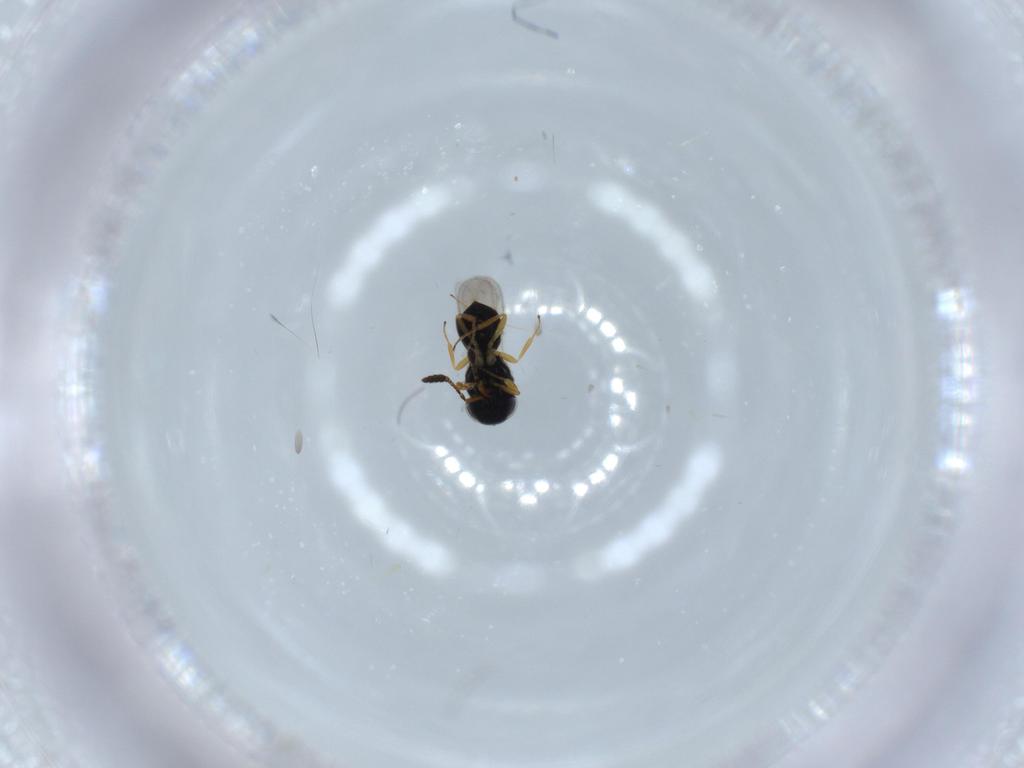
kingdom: Animalia
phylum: Arthropoda
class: Insecta
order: Hymenoptera
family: Scelionidae
